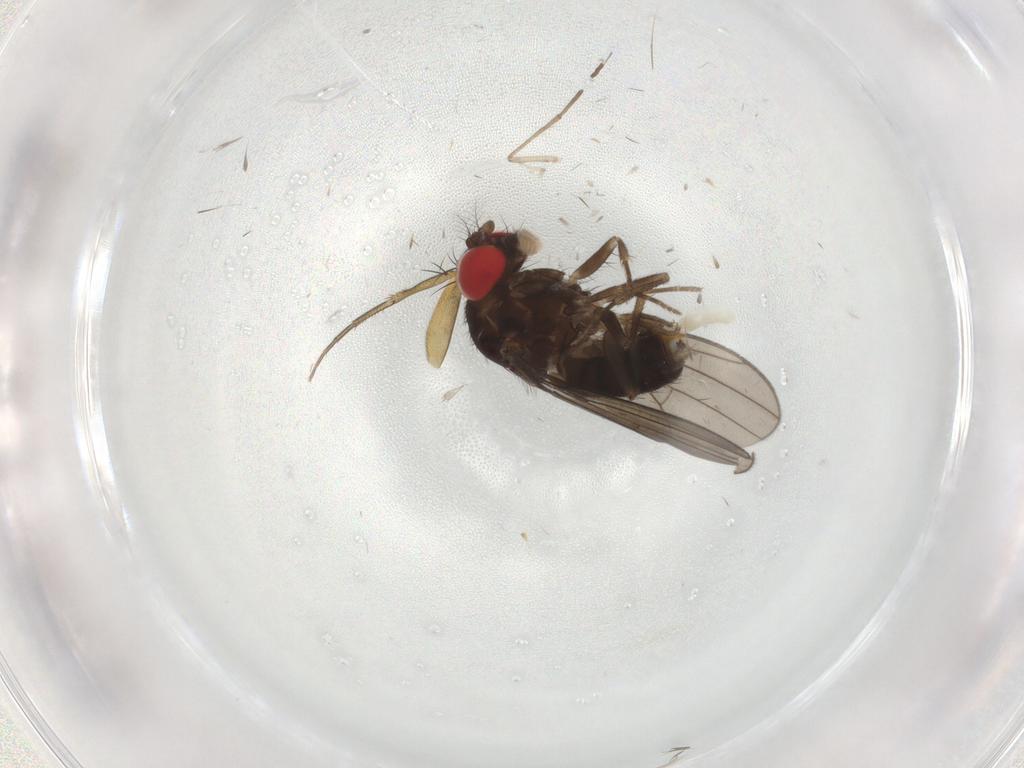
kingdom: Animalia
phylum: Arthropoda
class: Insecta
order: Diptera
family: Drosophilidae
